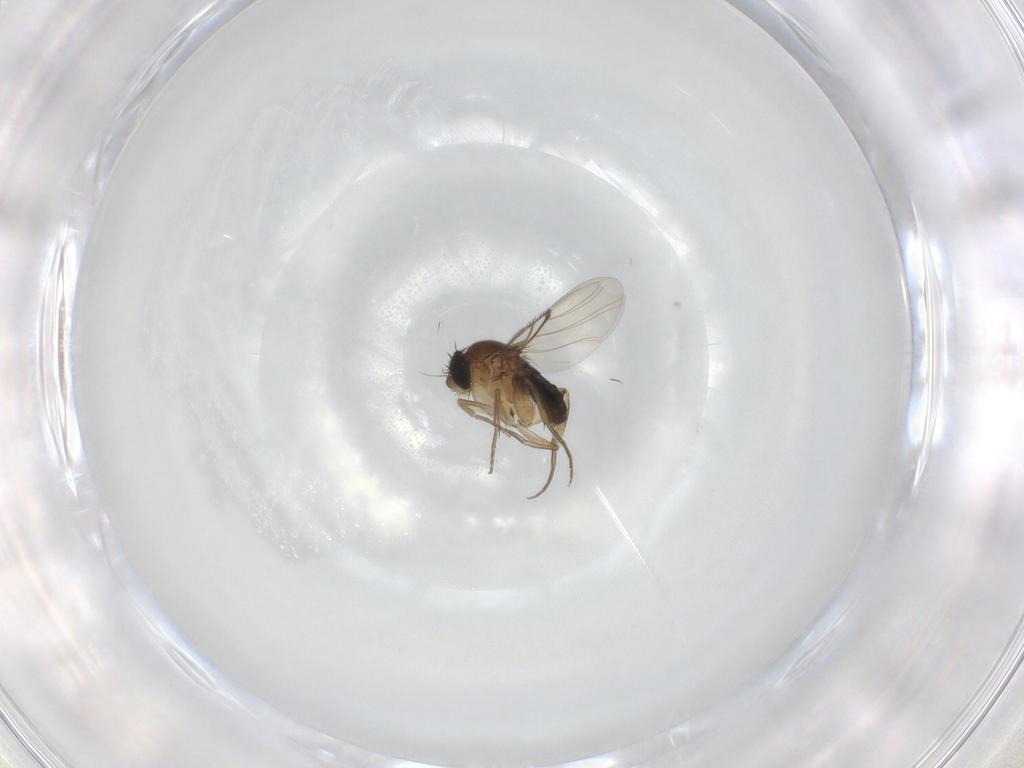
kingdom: Animalia
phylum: Arthropoda
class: Insecta
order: Diptera
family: Phoridae
